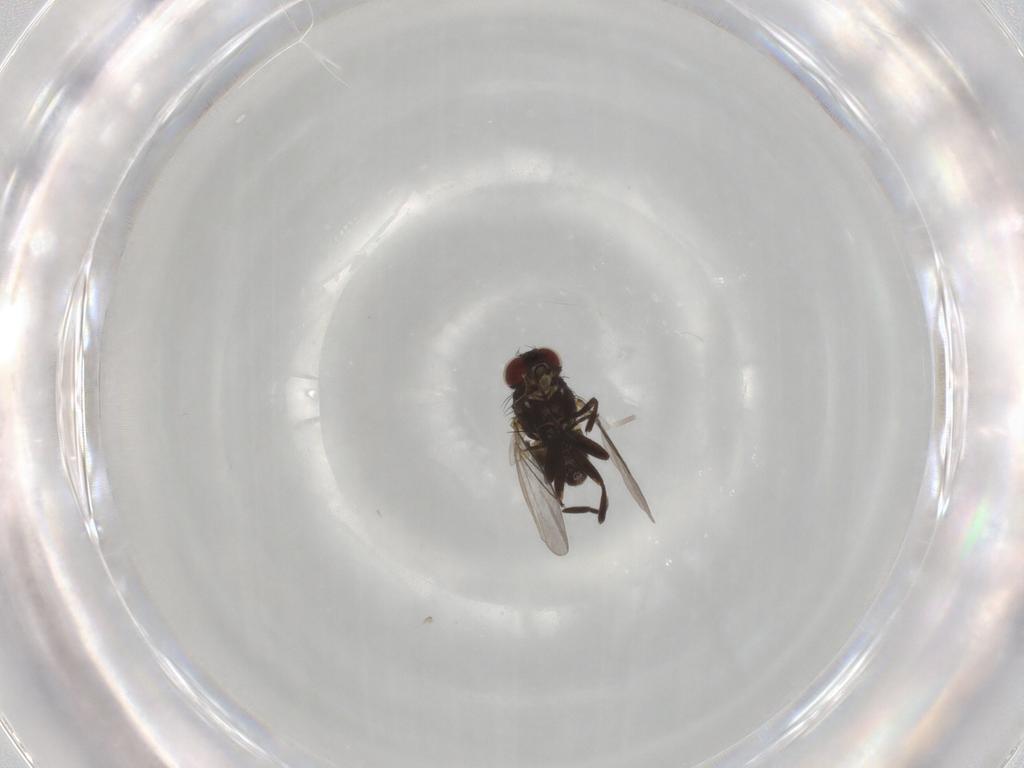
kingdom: Animalia
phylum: Arthropoda
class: Insecta
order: Diptera
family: Agromyzidae
